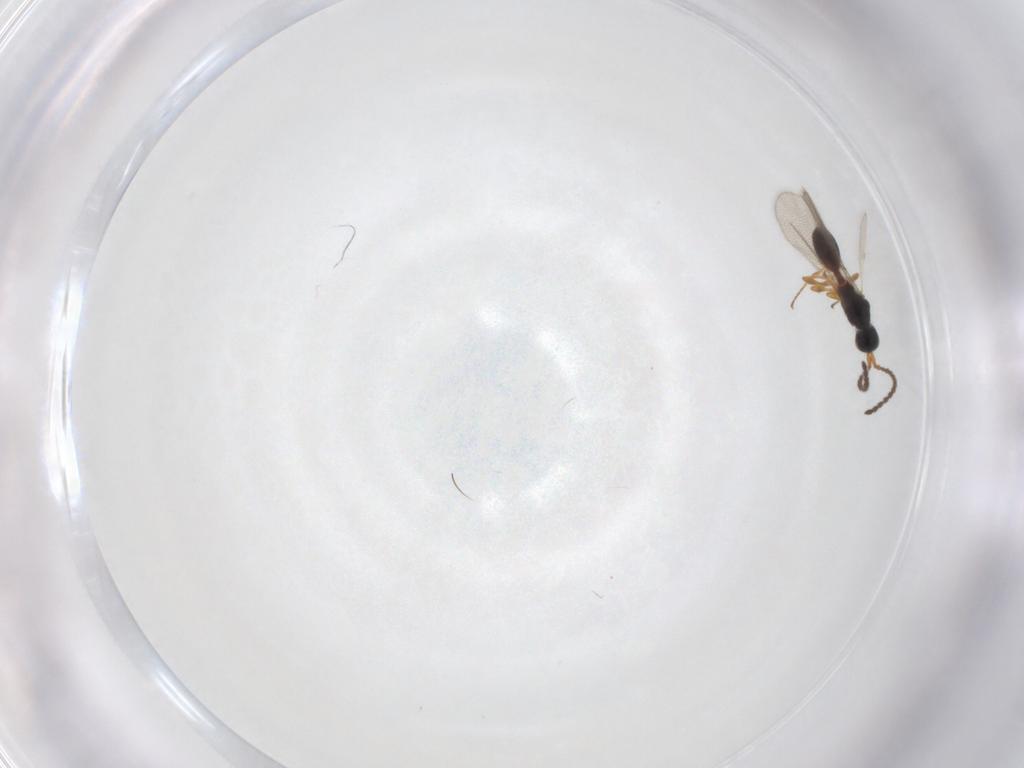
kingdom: Animalia
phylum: Arthropoda
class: Insecta
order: Hymenoptera
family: Diapriidae
